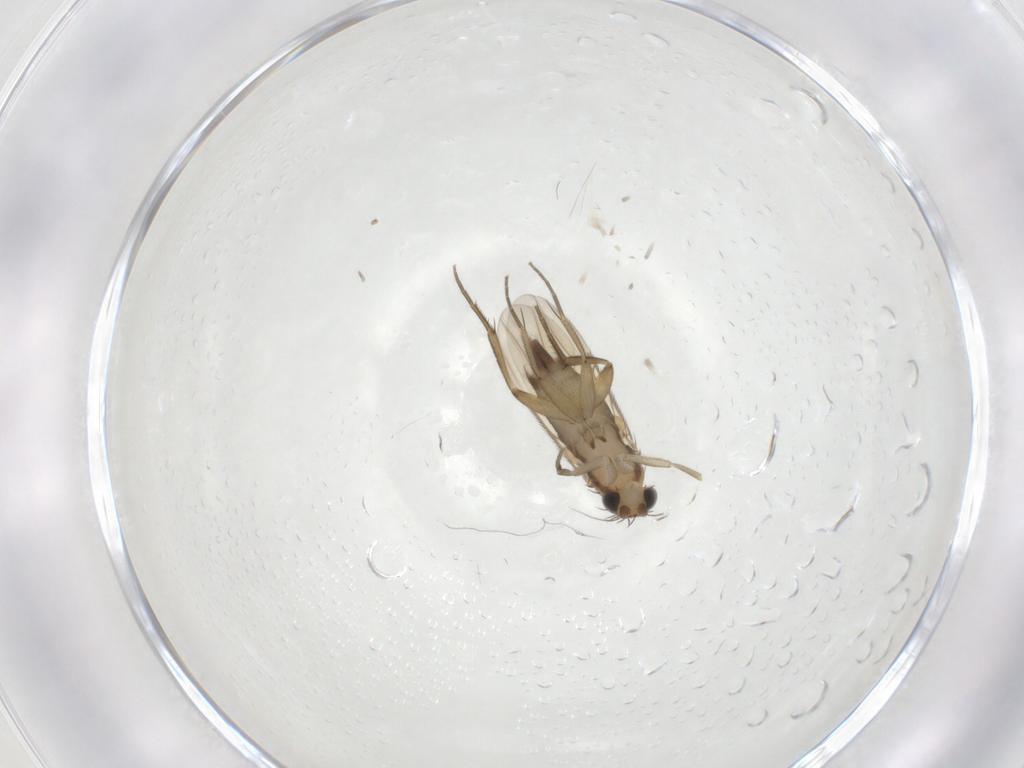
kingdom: Animalia
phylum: Arthropoda
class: Insecta
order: Diptera
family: Phoridae
